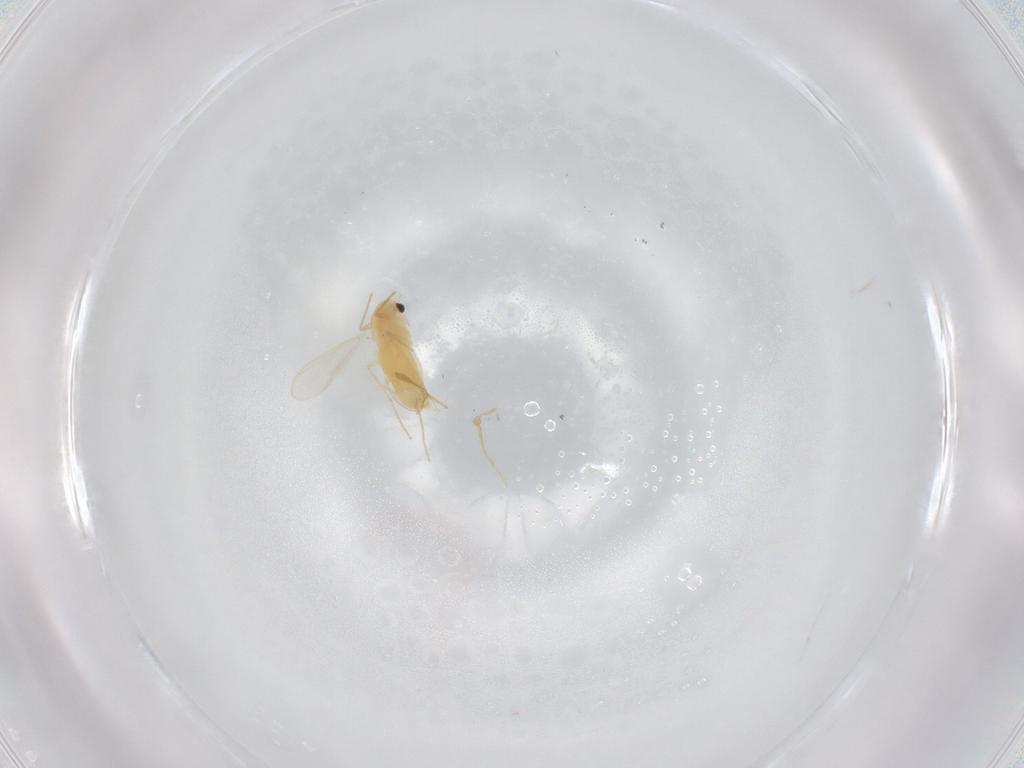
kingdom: Animalia
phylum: Arthropoda
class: Insecta
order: Diptera
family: Chironomidae
